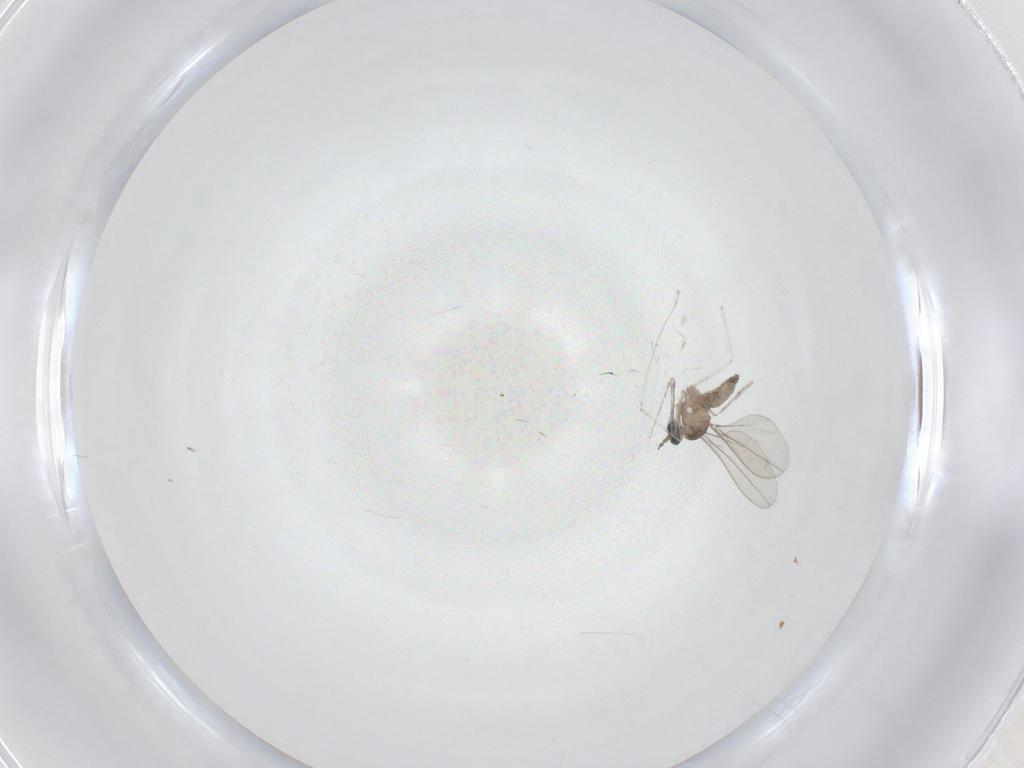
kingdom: Animalia
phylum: Arthropoda
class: Insecta
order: Diptera
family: Cecidomyiidae
